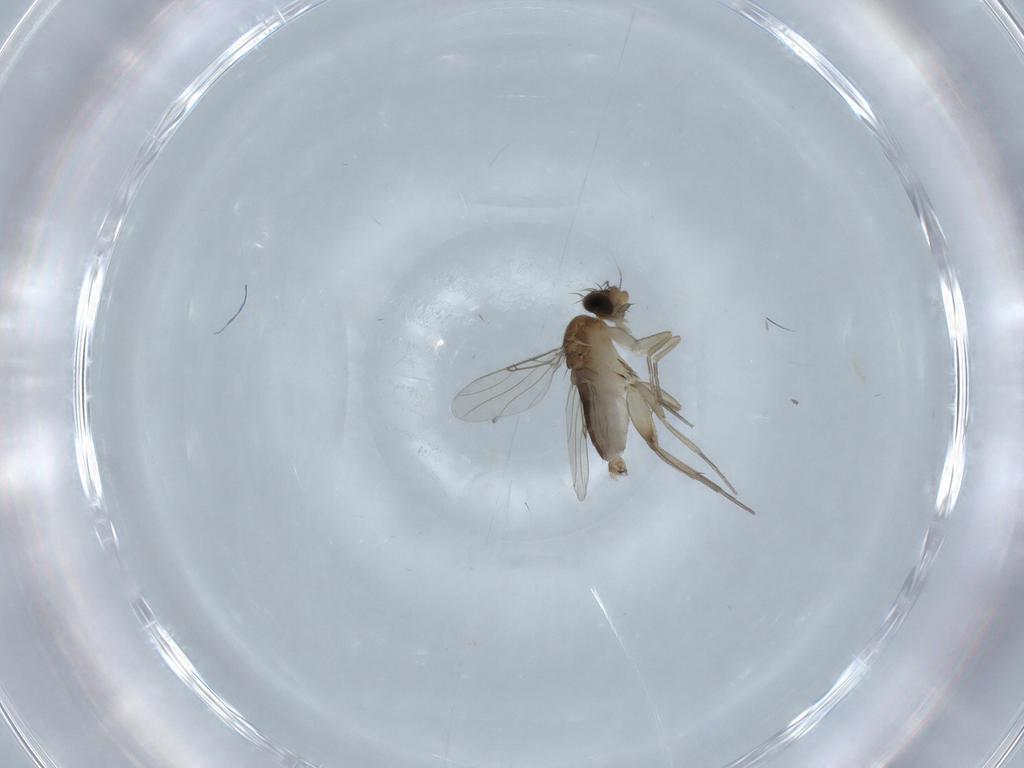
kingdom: Animalia
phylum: Arthropoda
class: Insecta
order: Diptera
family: Phoridae
